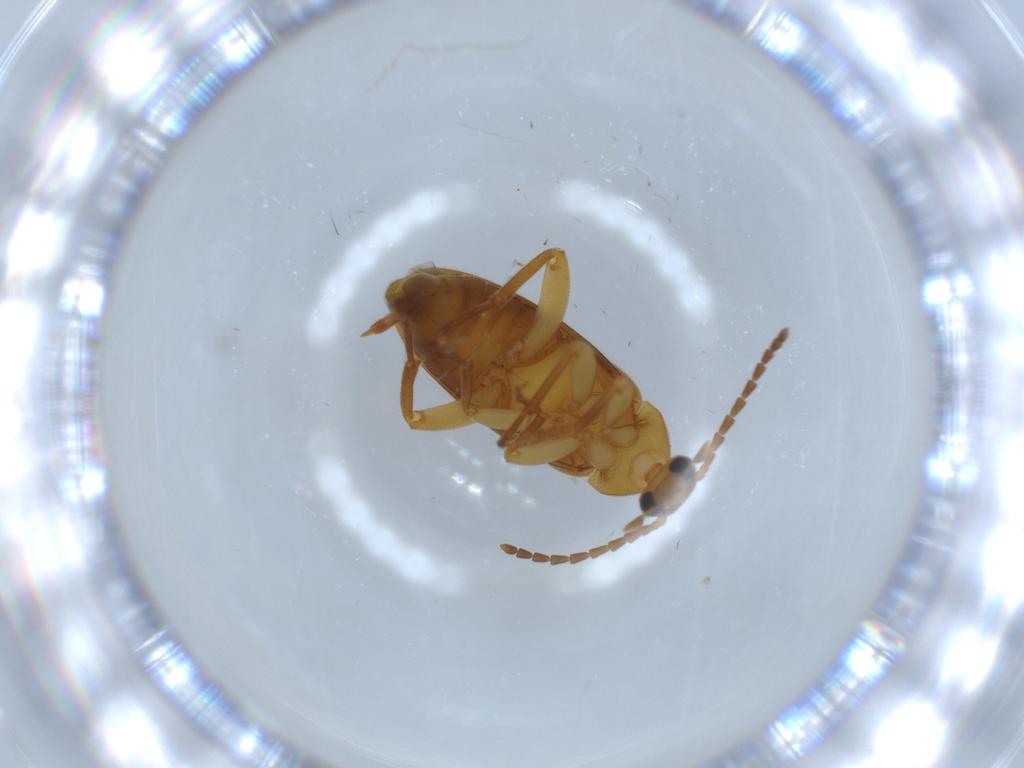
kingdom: Animalia
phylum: Arthropoda
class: Insecta
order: Coleoptera
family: Scraptiidae
